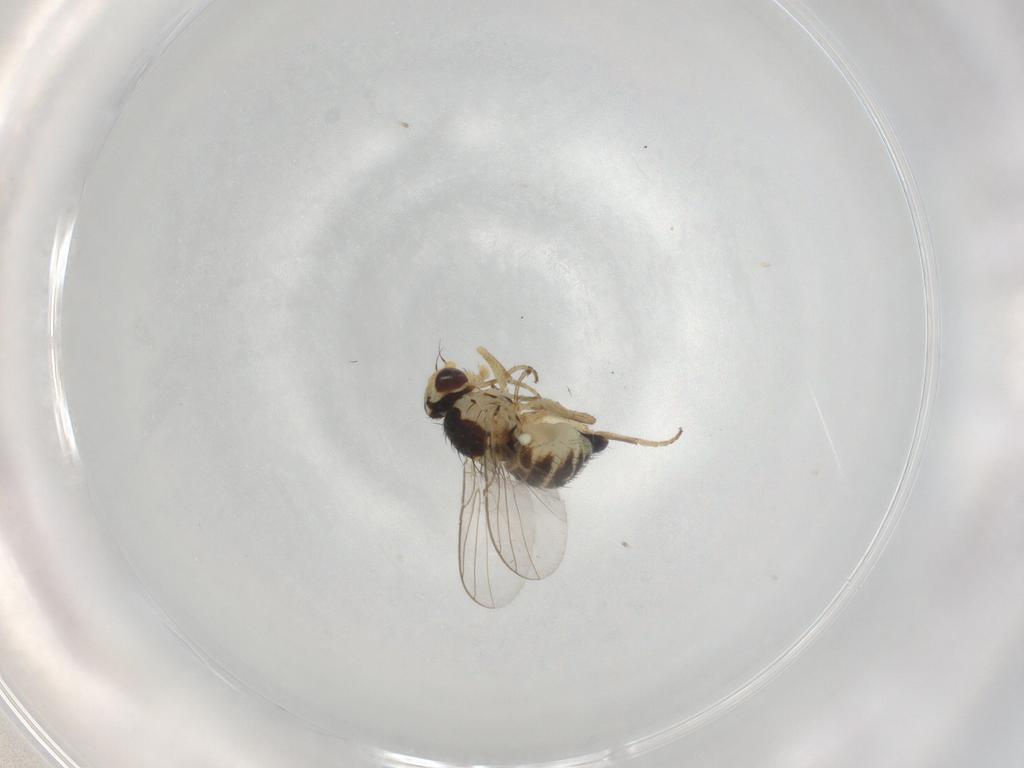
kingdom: Animalia
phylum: Arthropoda
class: Insecta
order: Diptera
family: Agromyzidae
